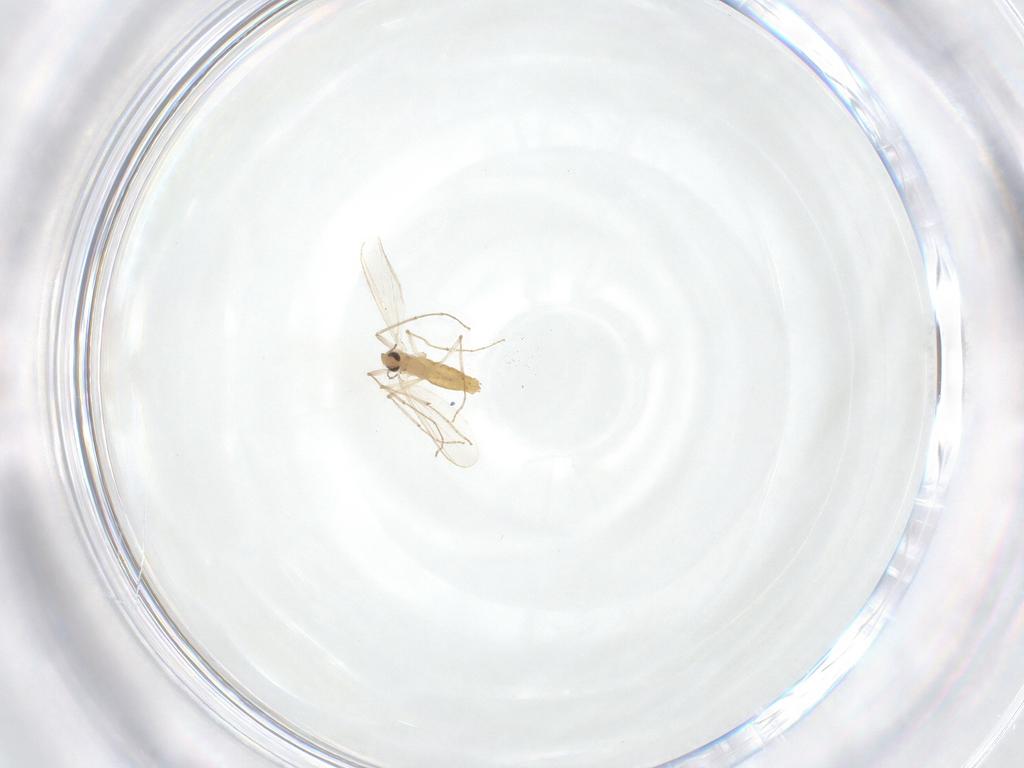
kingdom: Animalia
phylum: Arthropoda
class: Insecta
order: Diptera
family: Chironomidae
